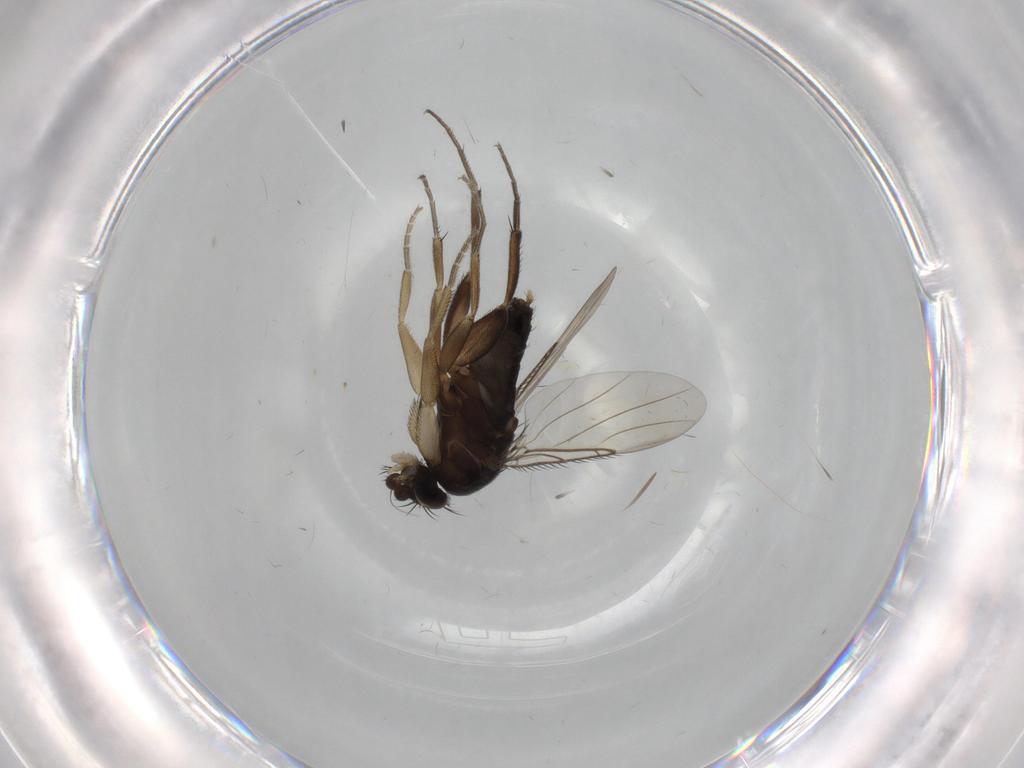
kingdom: Animalia
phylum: Arthropoda
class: Insecta
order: Diptera
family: Phoridae
